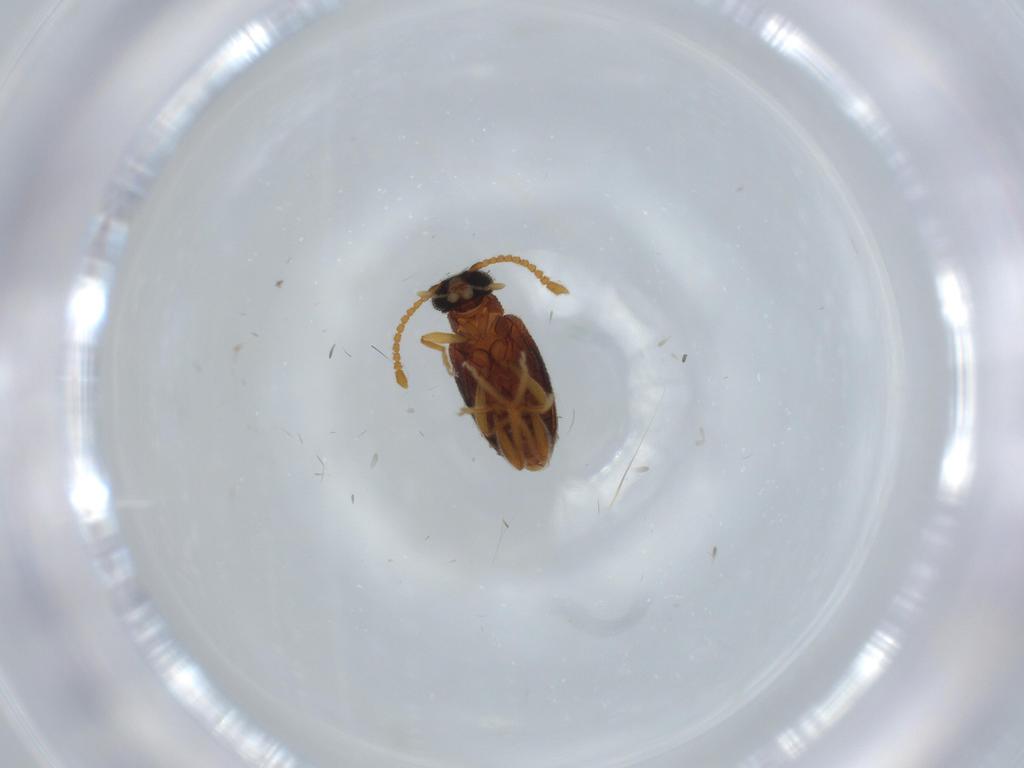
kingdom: Animalia
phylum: Arthropoda
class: Insecta
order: Coleoptera
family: Aderidae
